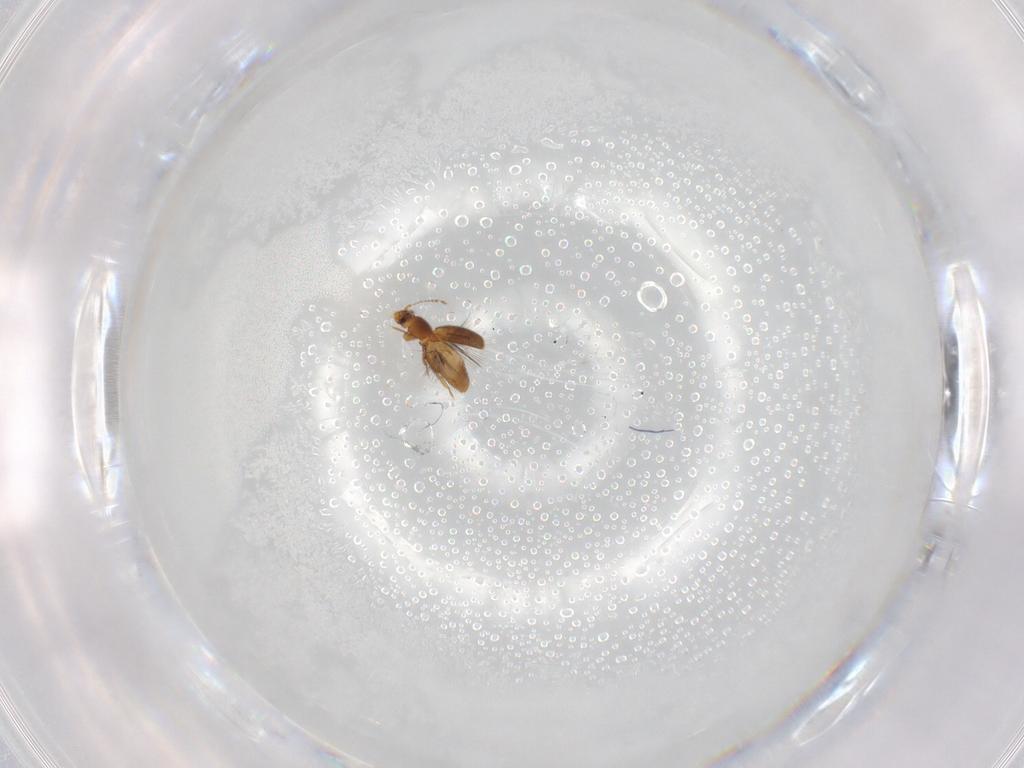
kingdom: Animalia
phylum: Arthropoda
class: Insecta
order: Coleoptera
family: Ptiliidae
